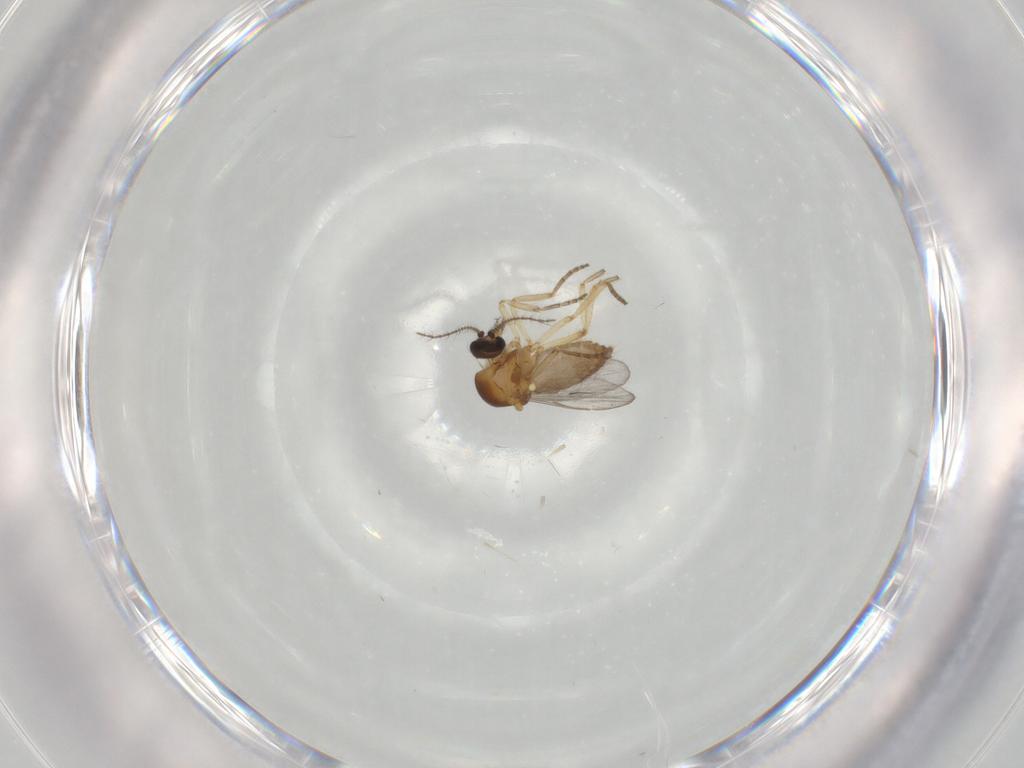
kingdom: Animalia
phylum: Arthropoda
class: Insecta
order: Diptera
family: Ceratopogonidae
